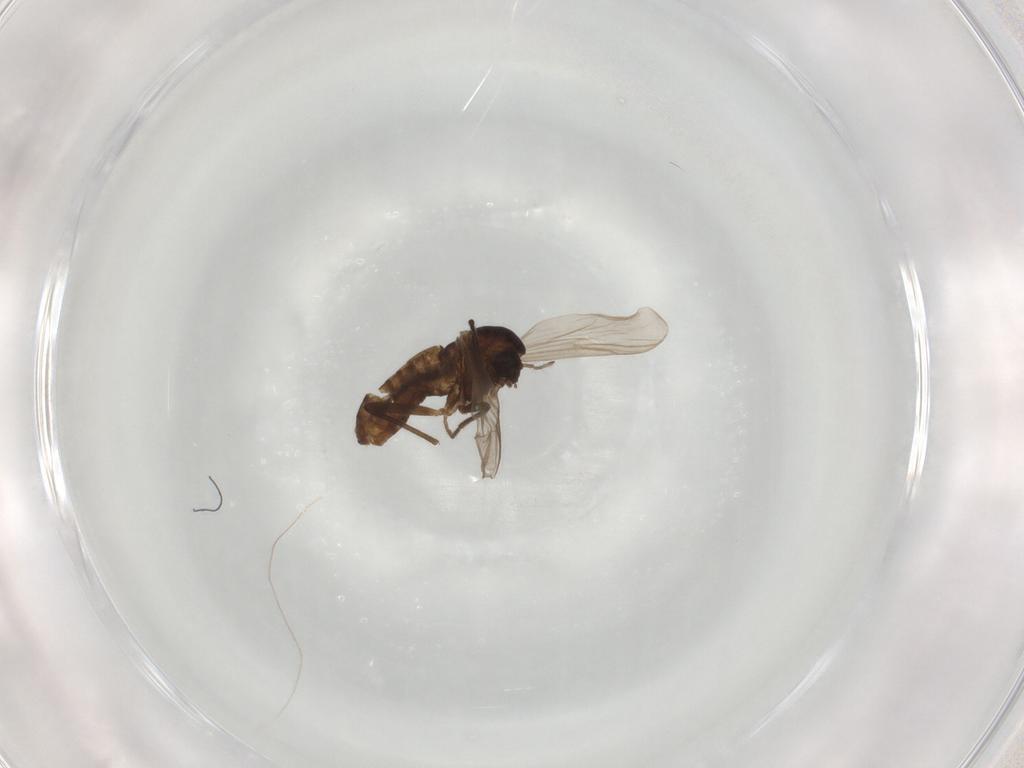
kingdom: Animalia
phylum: Arthropoda
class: Insecta
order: Diptera
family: Chironomidae
